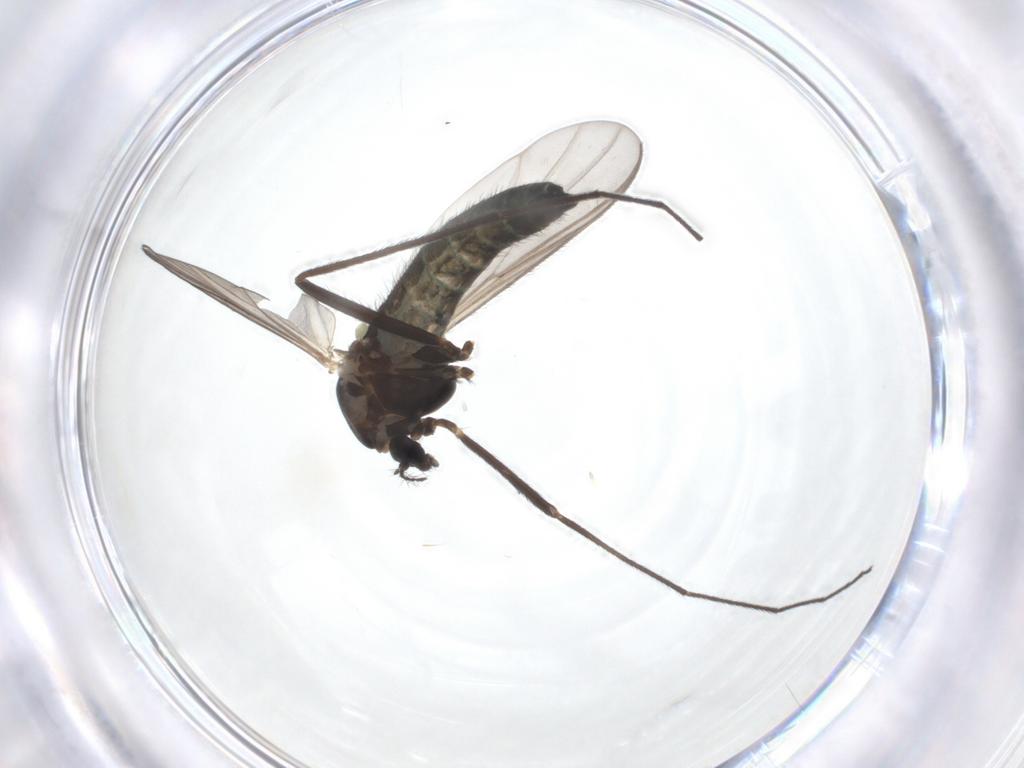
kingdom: Animalia
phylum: Arthropoda
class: Insecta
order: Diptera
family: Chironomidae
